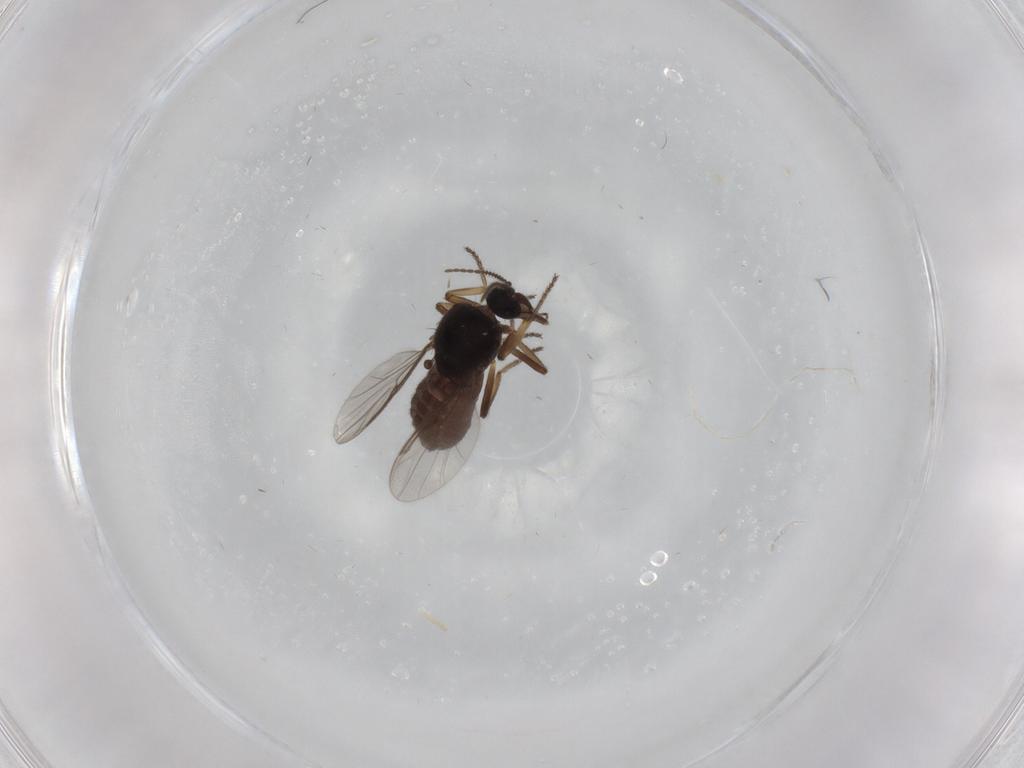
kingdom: Animalia
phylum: Arthropoda
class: Insecta
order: Diptera
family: Ceratopogonidae
